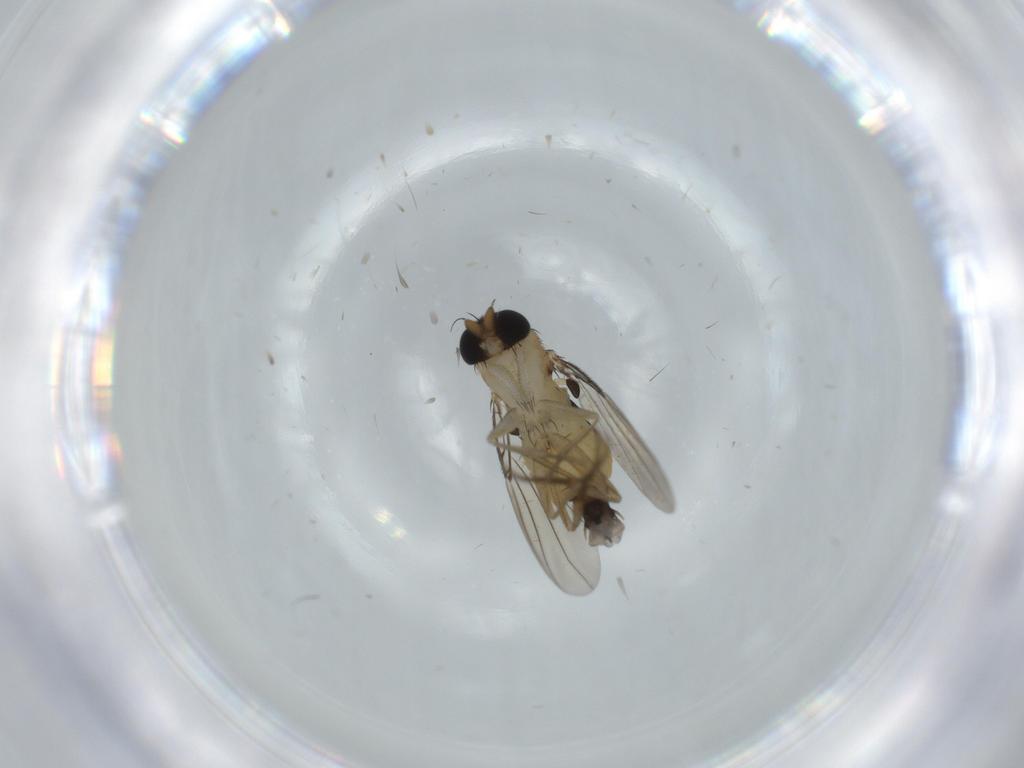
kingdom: Animalia
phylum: Arthropoda
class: Insecta
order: Diptera
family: Phoridae
